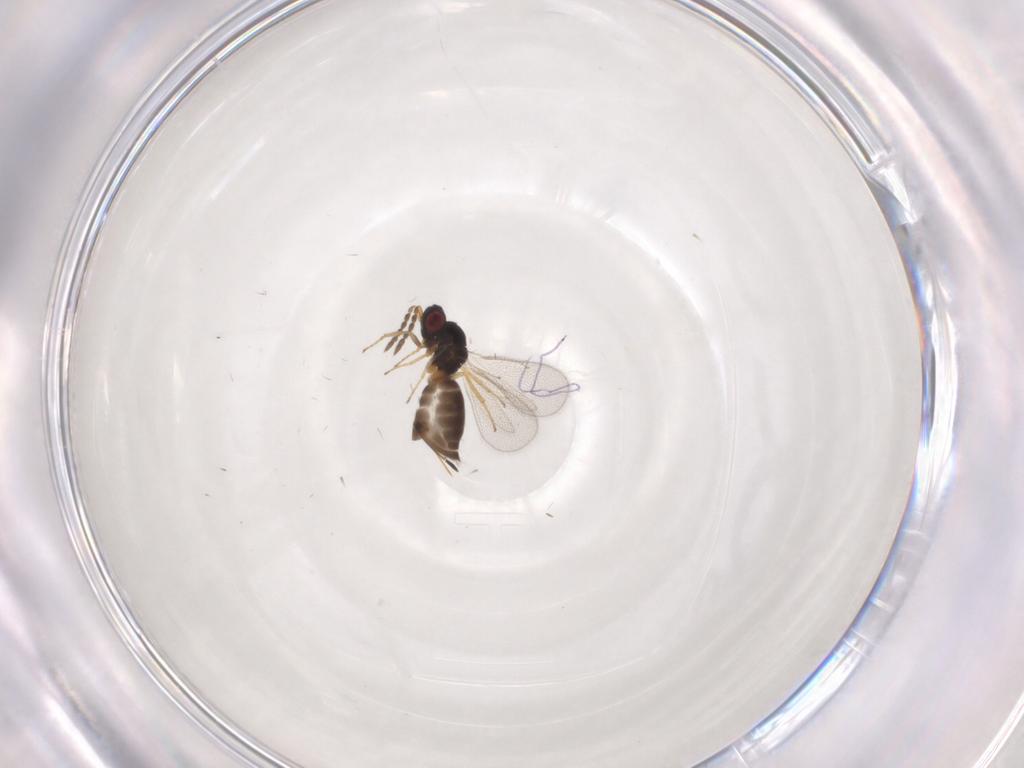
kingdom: Animalia
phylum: Arthropoda
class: Insecta
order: Hymenoptera
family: Eulophidae
